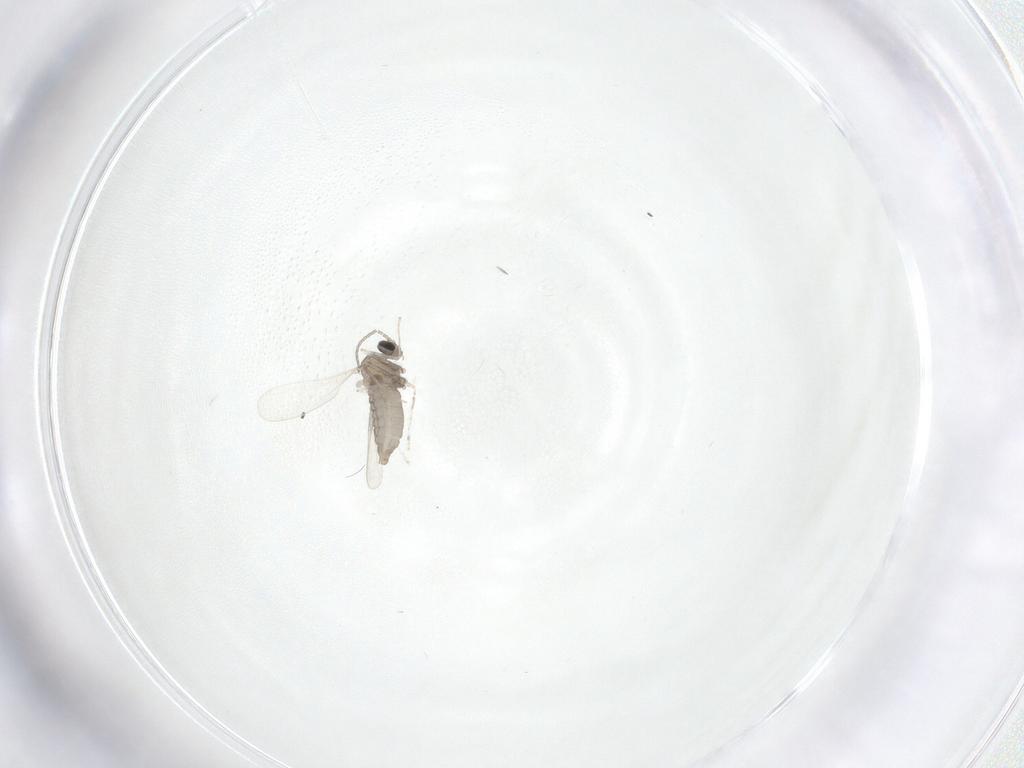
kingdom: Animalia
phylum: Arthropoda
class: Insecta
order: Diptera
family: Cecidomyiidae
